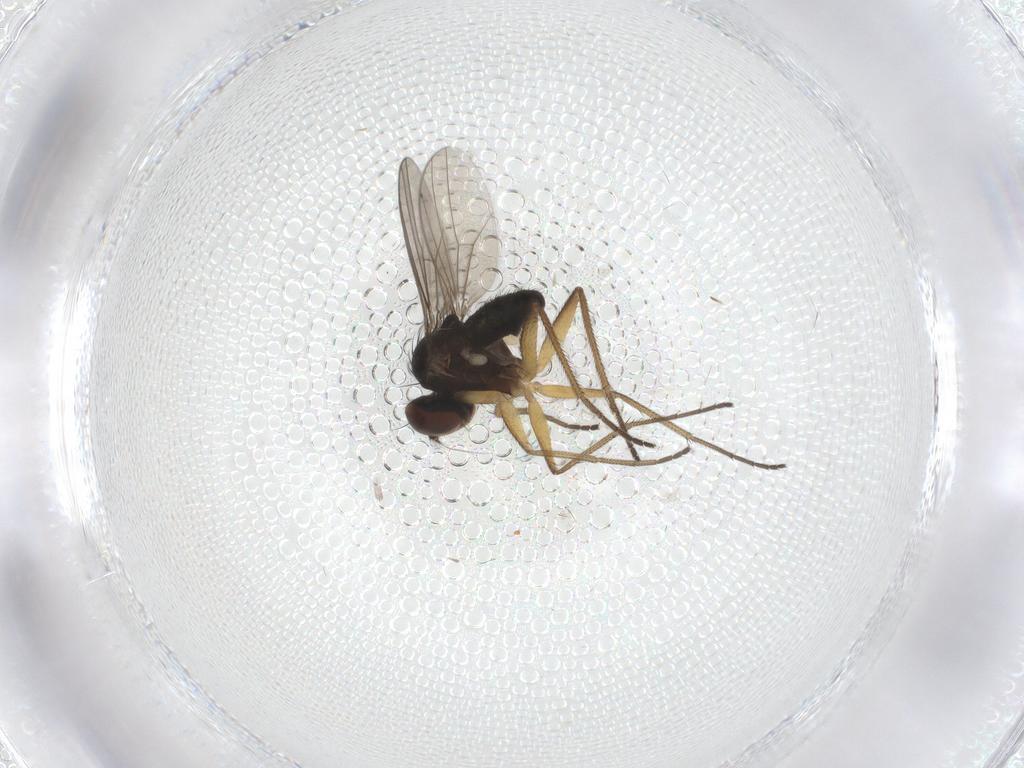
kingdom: Animalia
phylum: Arthropoda
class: Insecta
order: Diptera
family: Dolichopodidae
